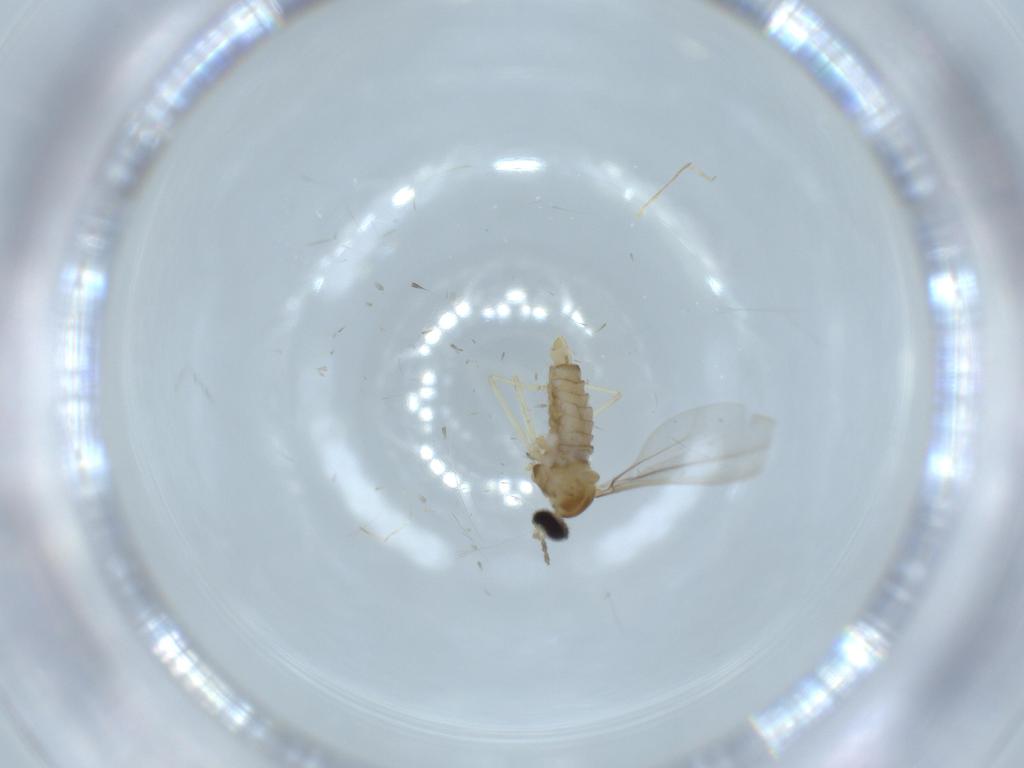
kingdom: Animalia
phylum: Arthropoda
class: Insecta
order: Diptera
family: Cecidomyiidae
